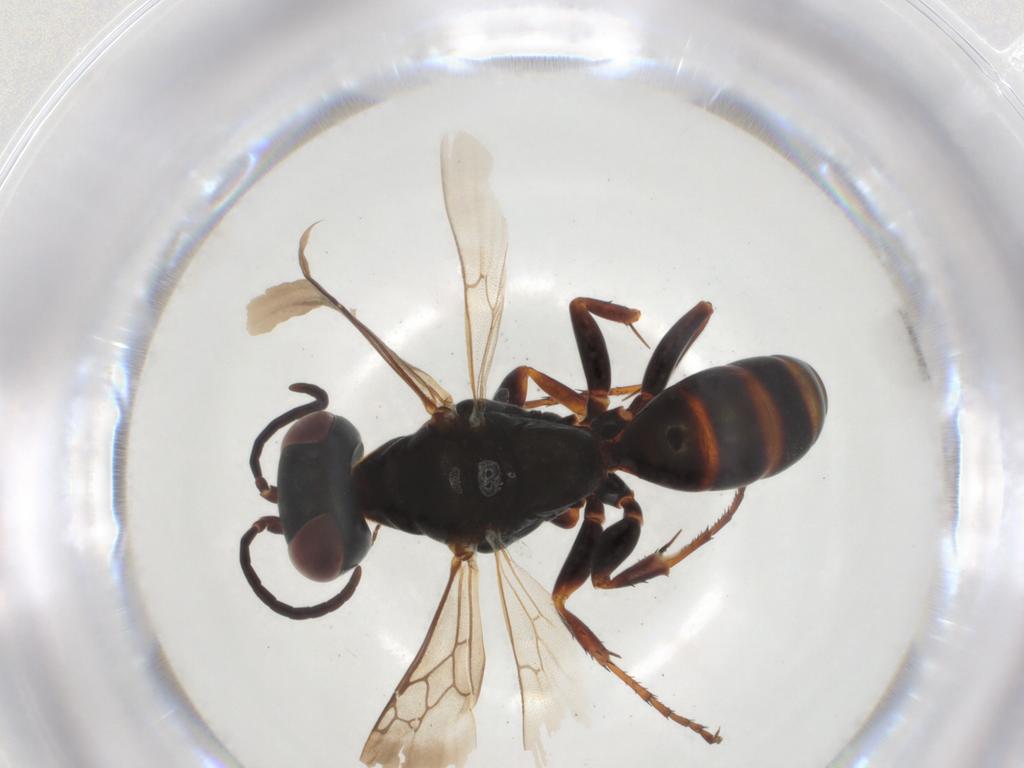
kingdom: Animalia
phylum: Arthropoda
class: Insecta
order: Hymenoptera
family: Crabronidae
